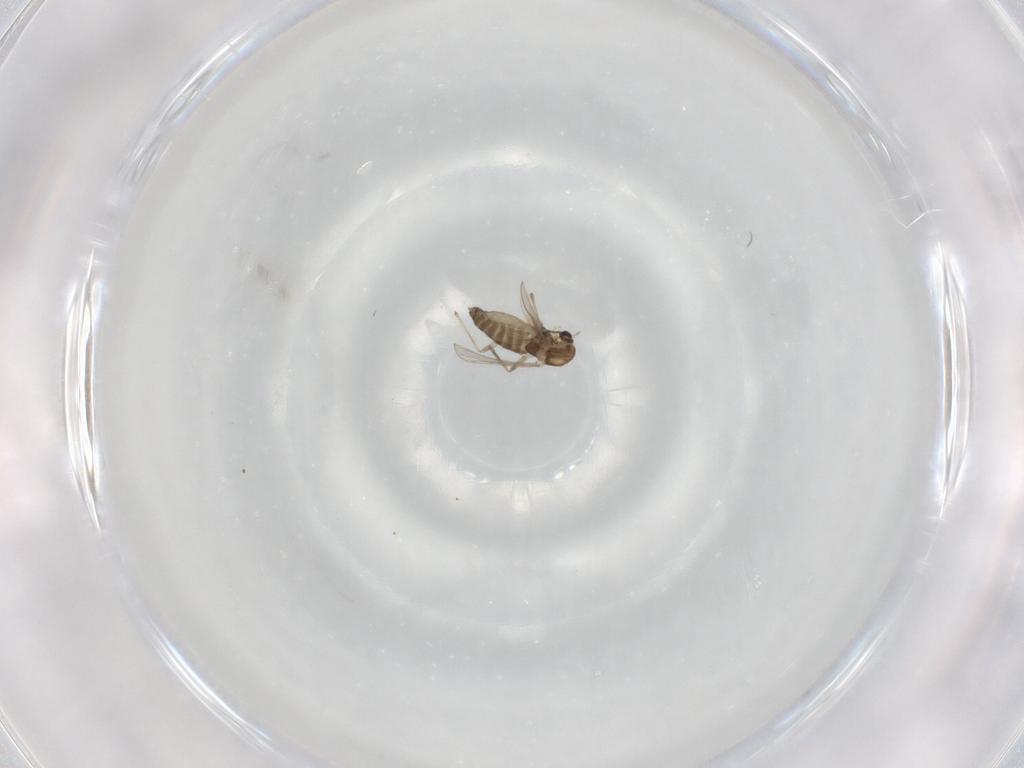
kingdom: Animalia
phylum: Arthropoda
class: Insecta
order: Diptera
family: Chironomidae
